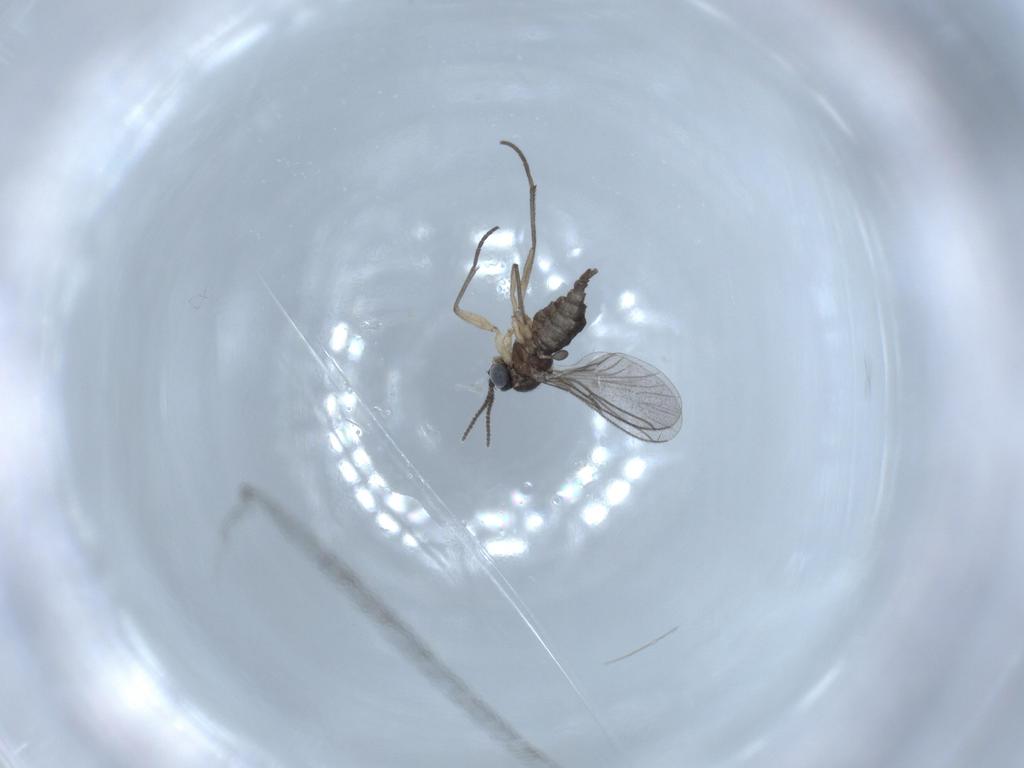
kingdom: Animalia
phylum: Arthropoda
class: Insecta
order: Diptera
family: Sciaridae
